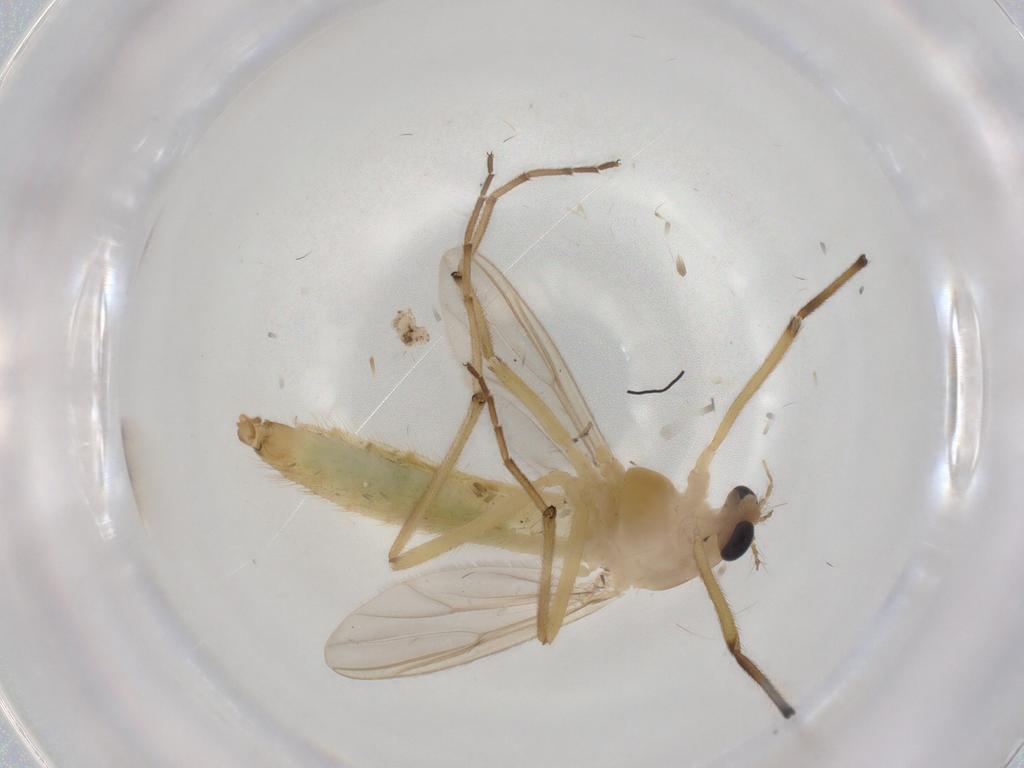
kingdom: Animalia
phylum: Arthropoda
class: Insecta
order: Diptera
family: Chironomidae
